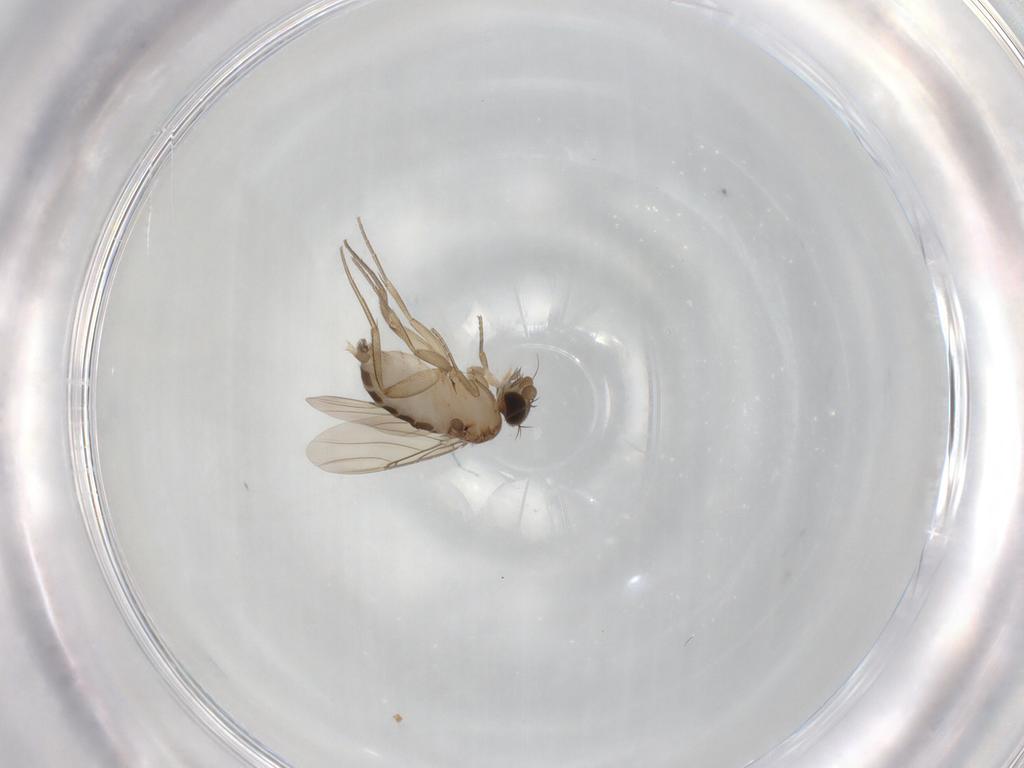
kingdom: Animalia
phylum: Arthropoda
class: Insecta
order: Diptera
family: Phoridae
